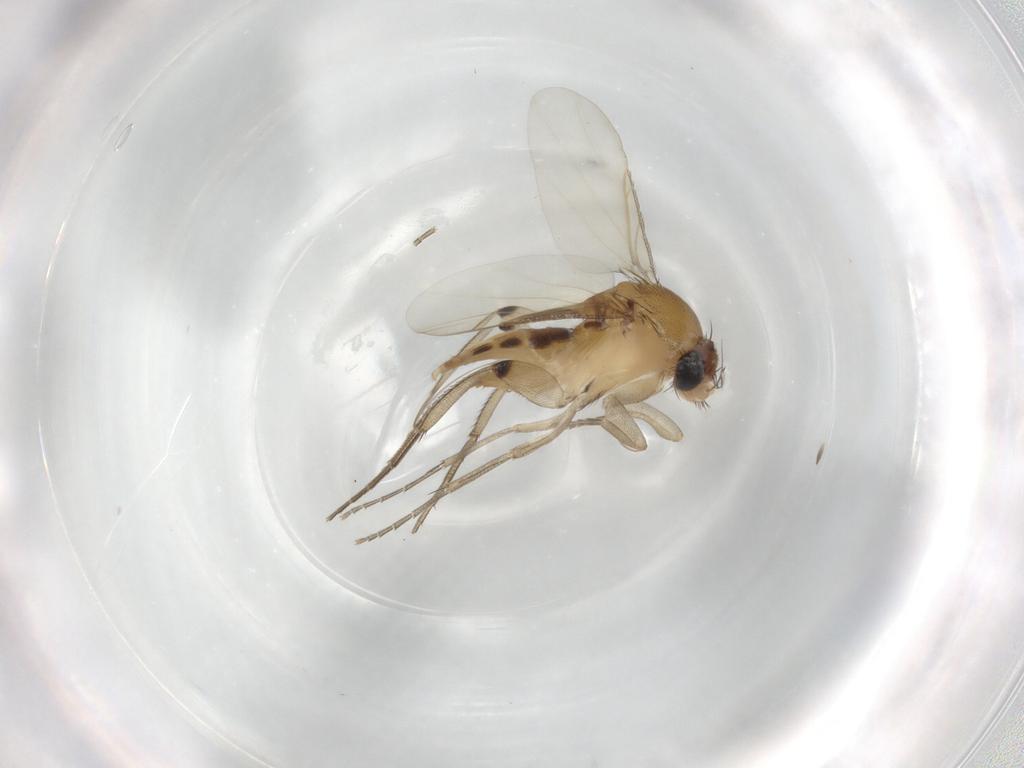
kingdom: Animalia
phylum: Arthropoda
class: Insecta
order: Diptera
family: Phoridae
